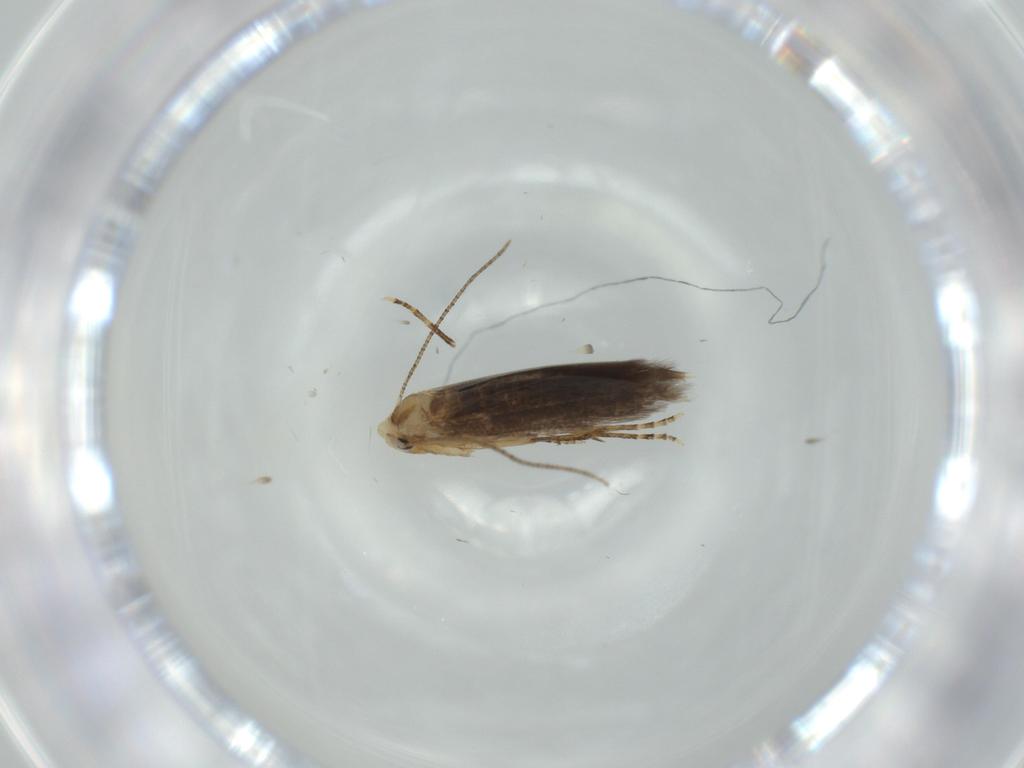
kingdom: Animalia
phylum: Arthropoda
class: Insecta
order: Lepidoptera
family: Bucculatricidae
